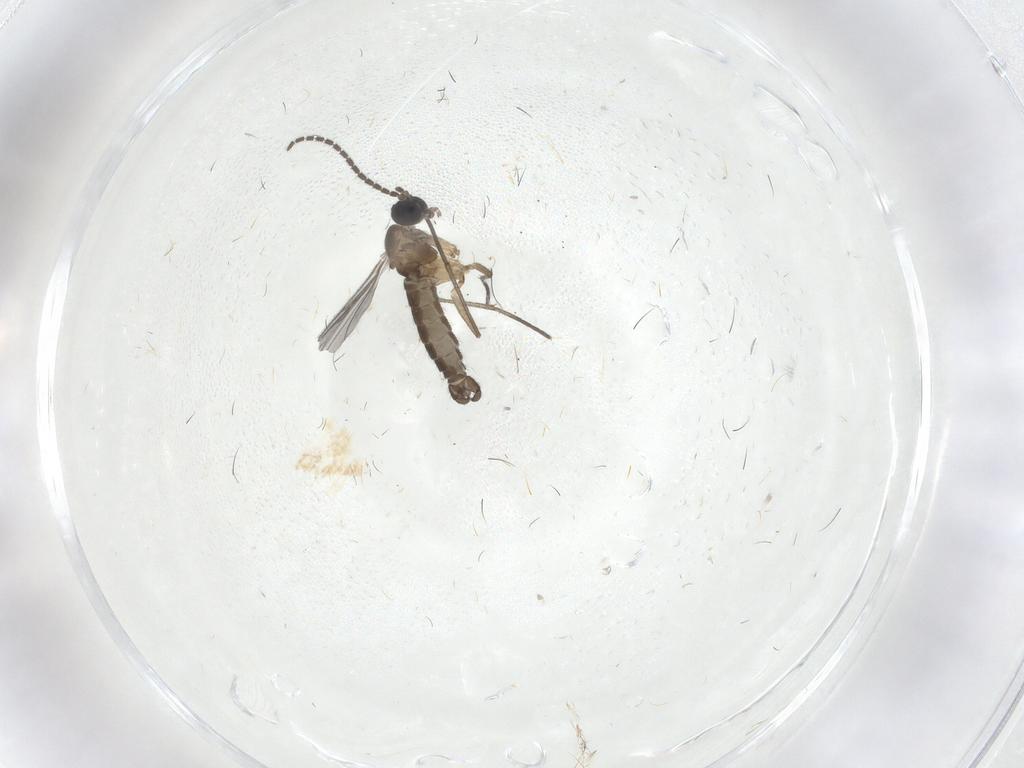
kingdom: Animalia
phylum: Arthropoda
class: Insecta
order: Diptera
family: Sciaridae
